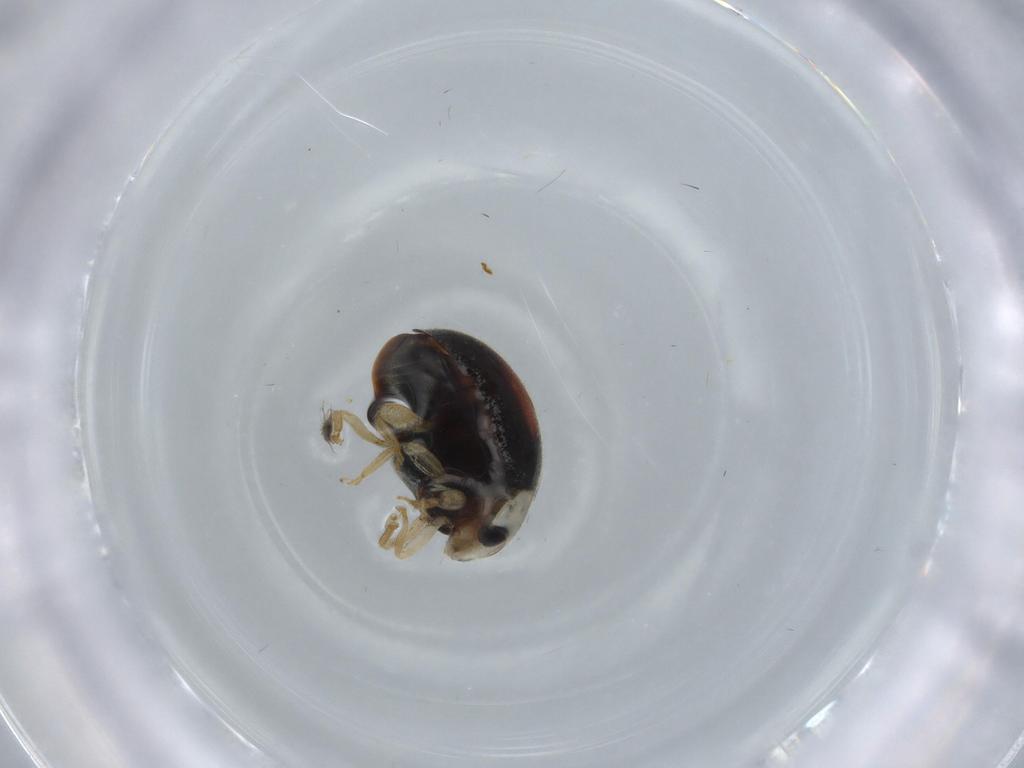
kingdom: Animalia
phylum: Arthropoda
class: Insecta
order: Coleoptera
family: Coccinellidae
